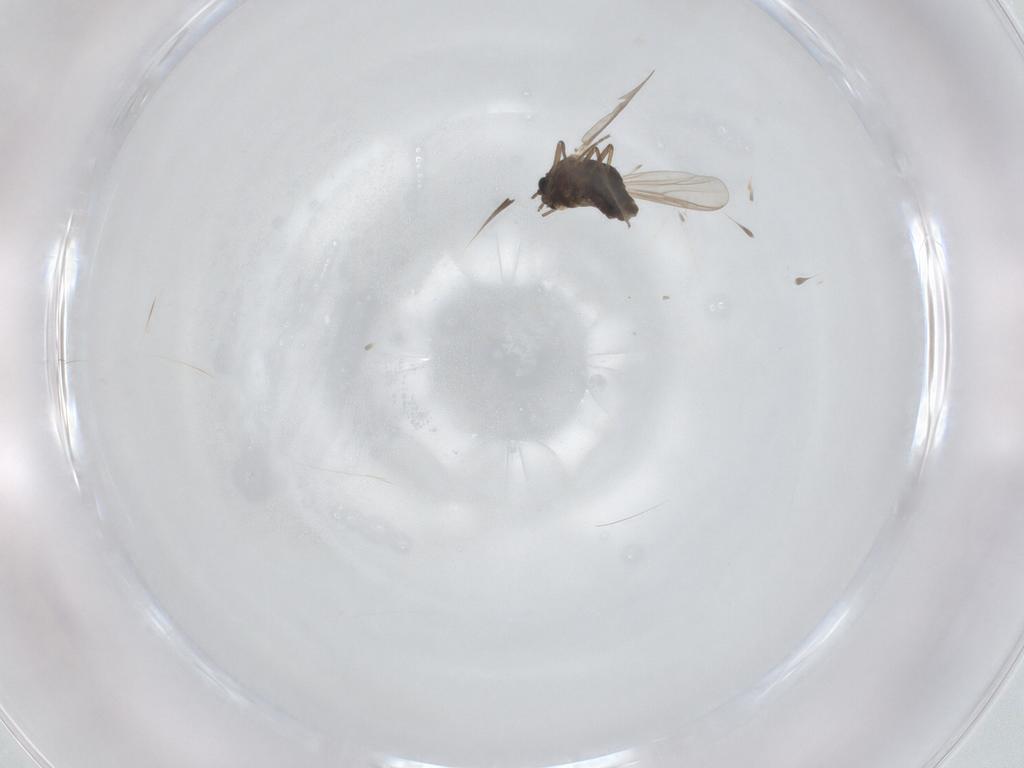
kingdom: Animalia
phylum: Arthropoda
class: Insecta
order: Diptera
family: Chironomidae
